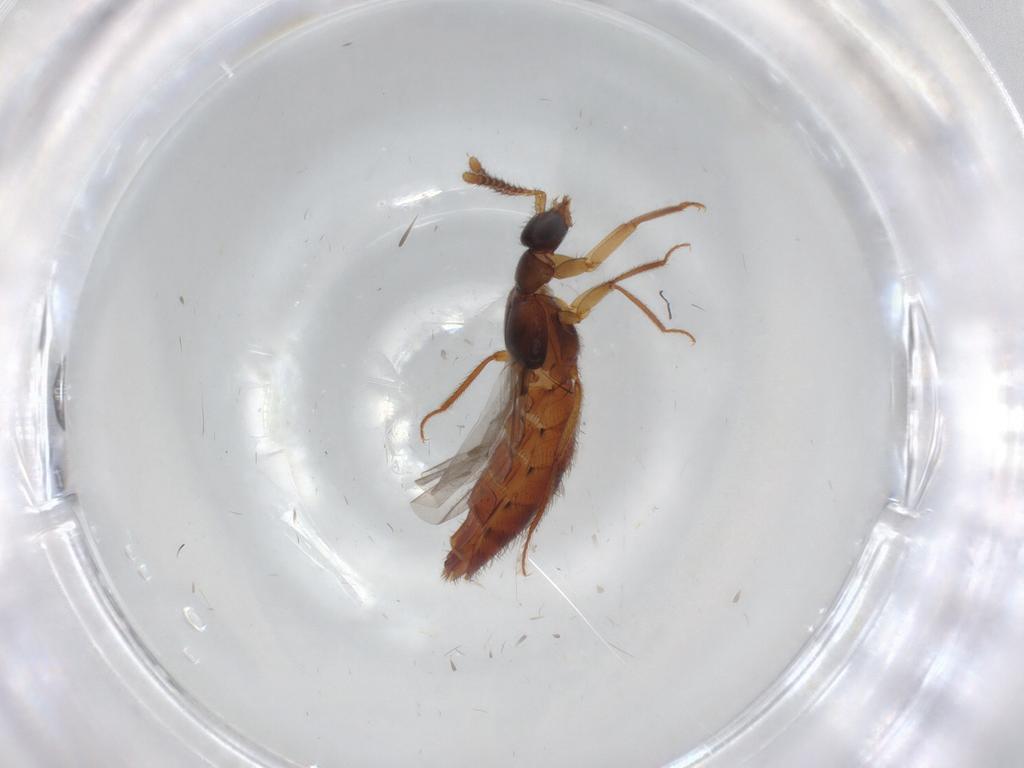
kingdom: Animalia
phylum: Arthropoda
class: Insecta
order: Coleoptera
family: Staphylinidae
